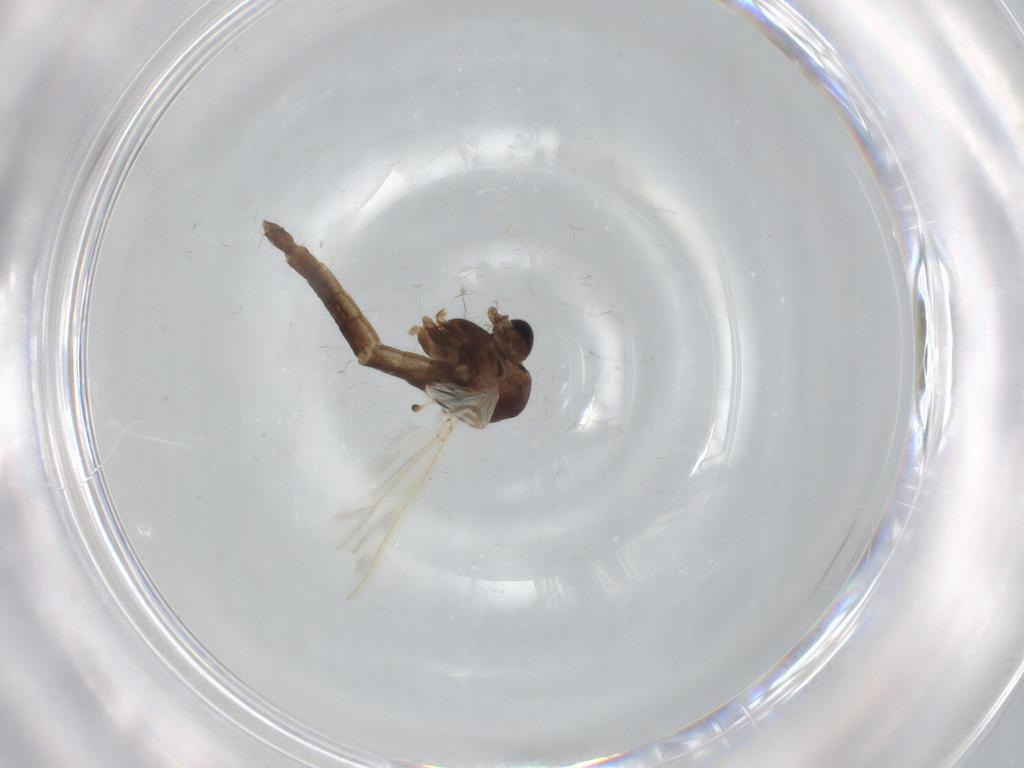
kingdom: Animalia
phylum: Arthropoda
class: Insecta
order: Diptera
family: Chironomidae
